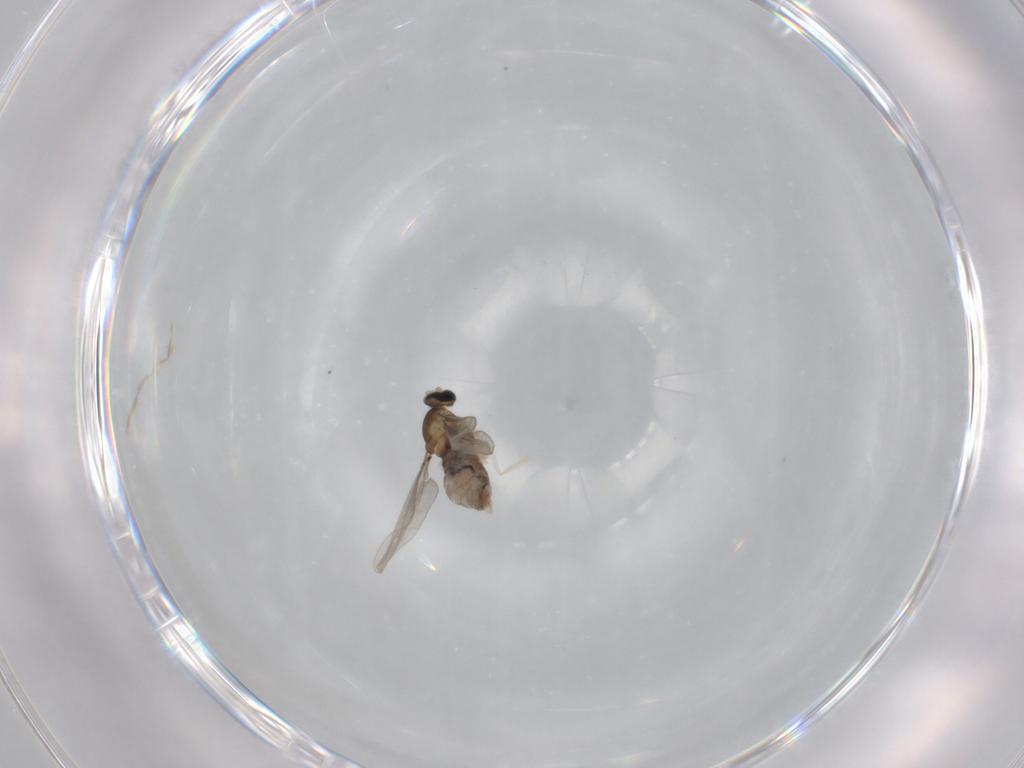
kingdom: Animalia
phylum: Arthropoda
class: Insecta
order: Diptera
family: Cecidomyiidae
